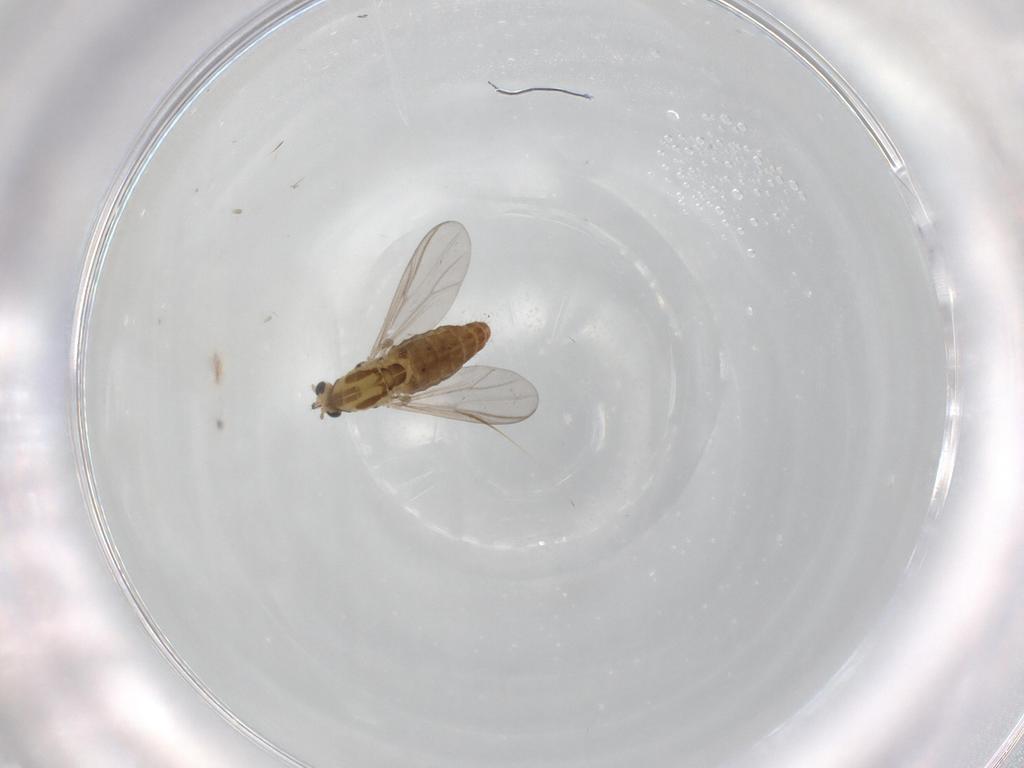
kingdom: Animalia
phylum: Arthropoda
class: Insecta
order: Diptera
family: Chironomidae
